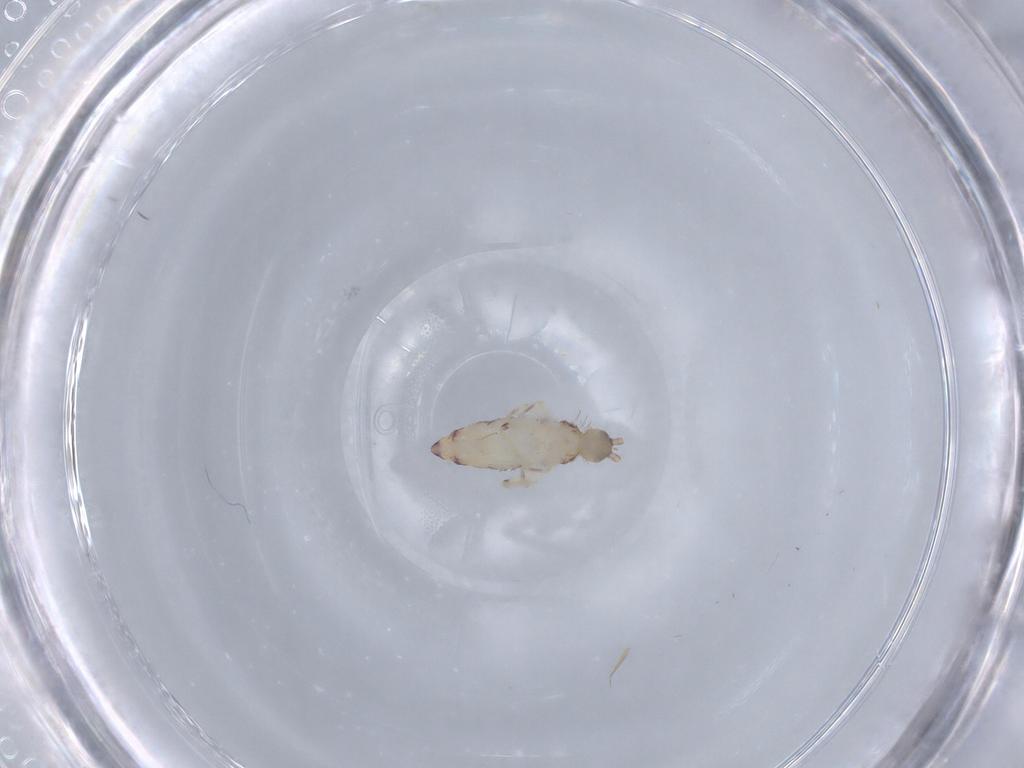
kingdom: Animalia
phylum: Arthropoda
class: Collembola
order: Entomobryomorpha
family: Entomobryidae
